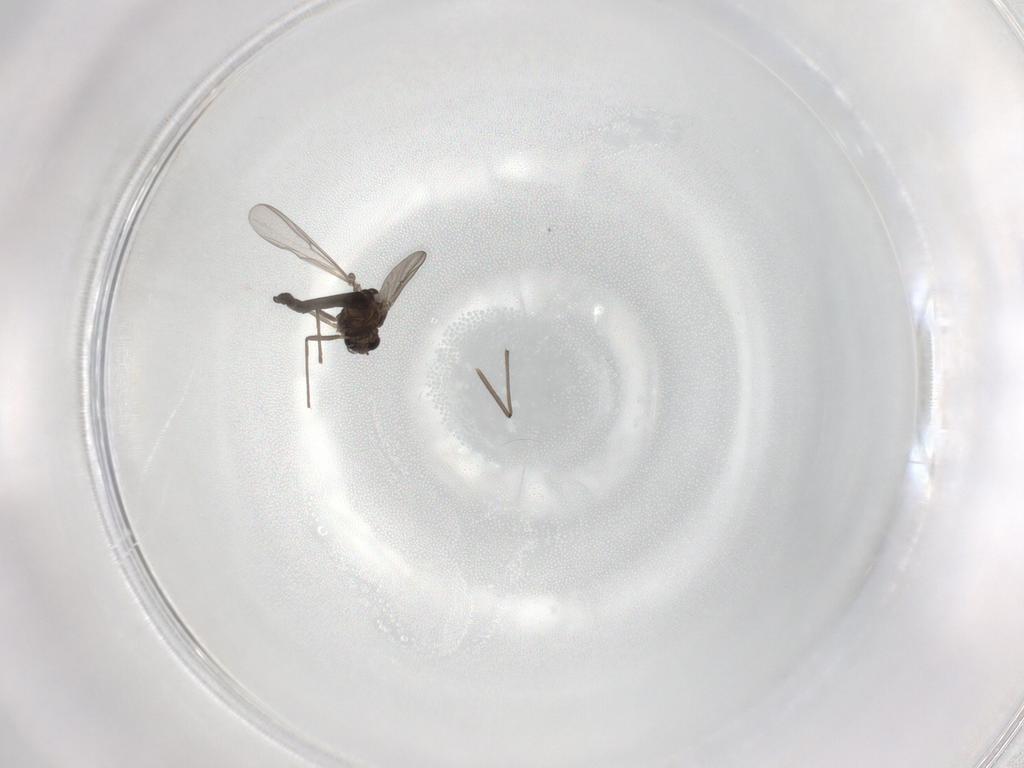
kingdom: Animalia
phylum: Arthropoda
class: Insecta
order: Diptera
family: Chironomidae
